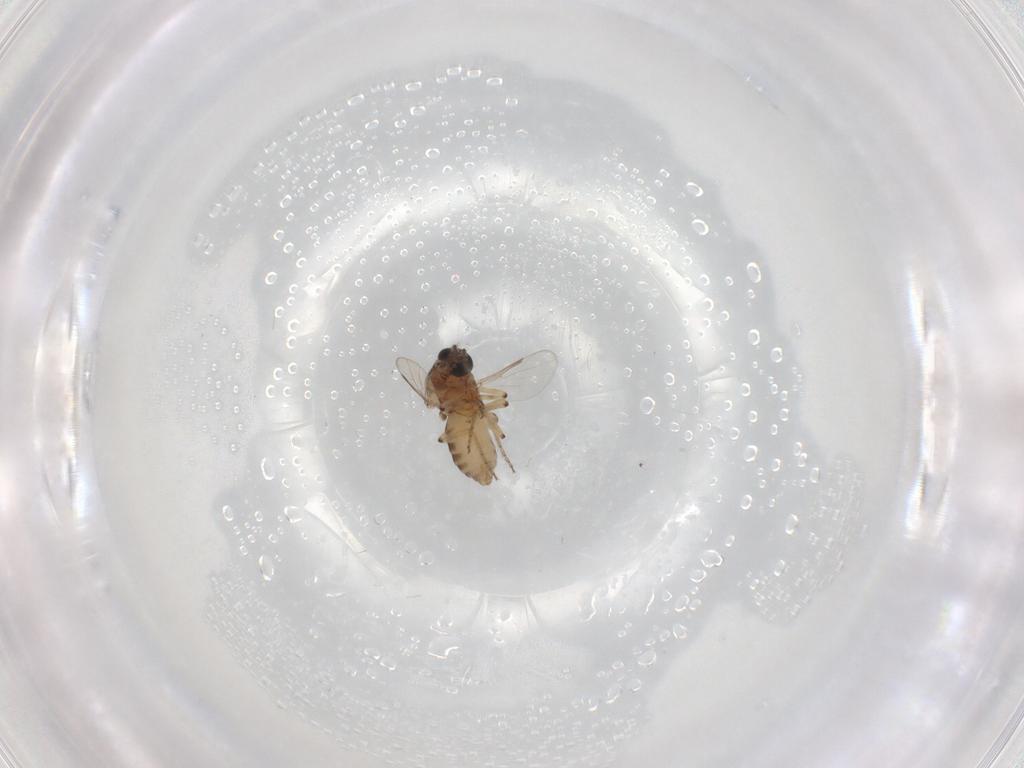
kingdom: Animalia
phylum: Arthropoda
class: Insecta
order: Diptera
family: Ceratopogonidae
